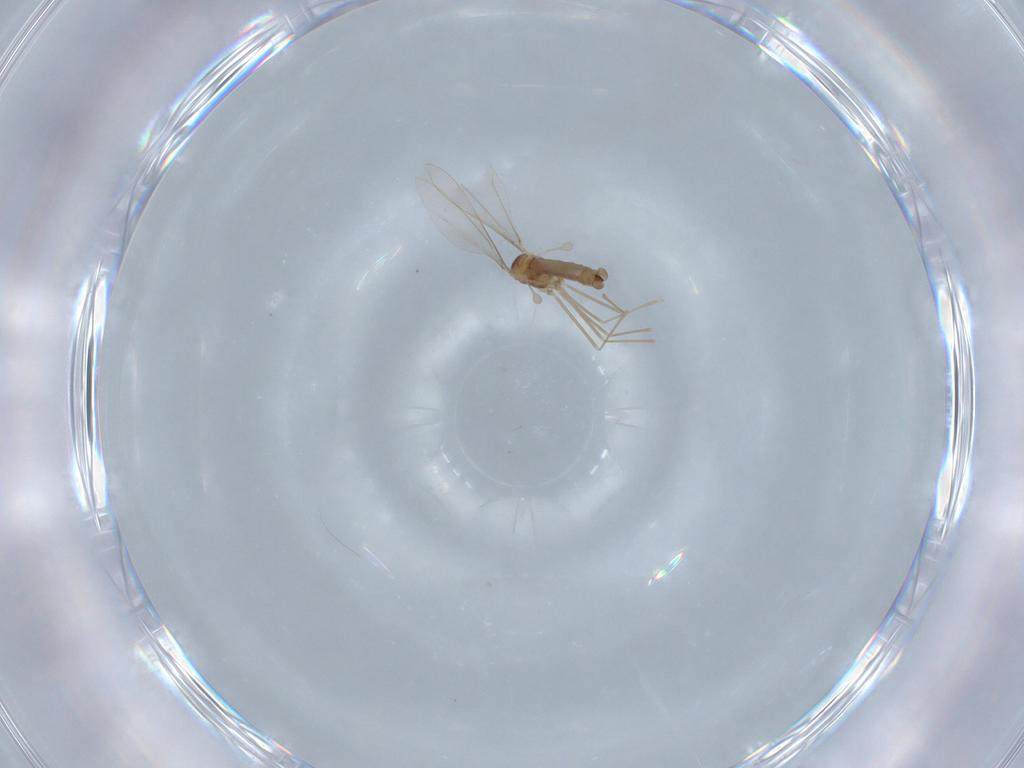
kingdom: Animalia
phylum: Arthropoda
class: Insecta
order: Diptera
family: Cecidomyiidae
